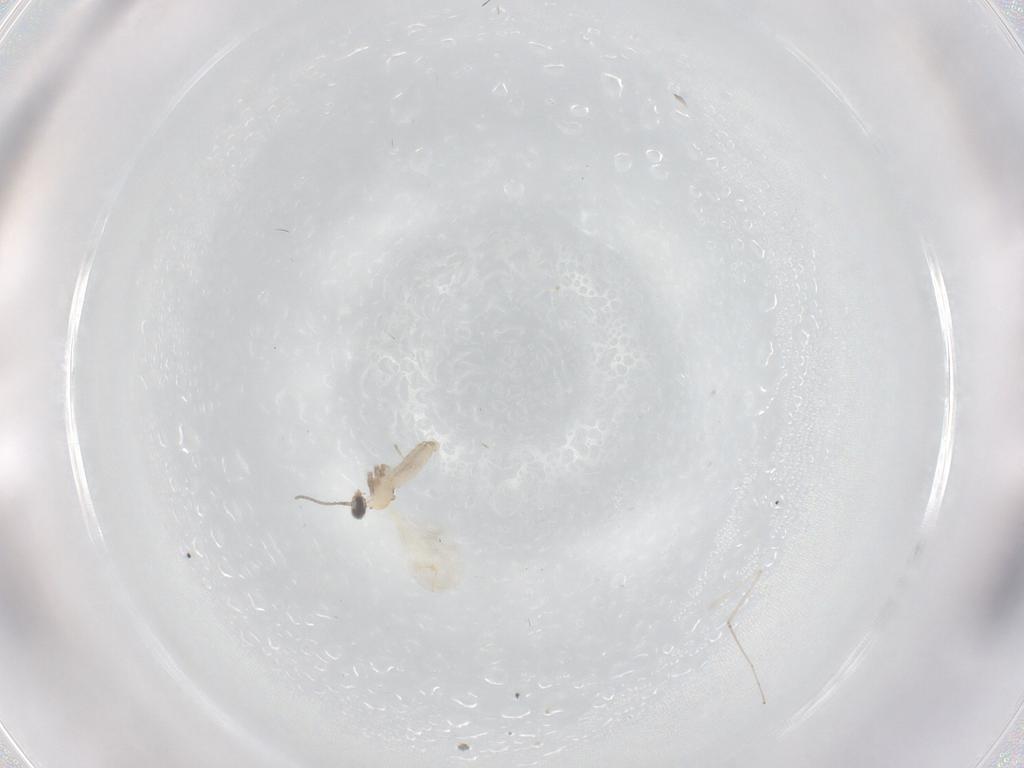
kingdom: Animalia
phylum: Arthropoda
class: Insecta
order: Diptera
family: Cecidomyiidae
